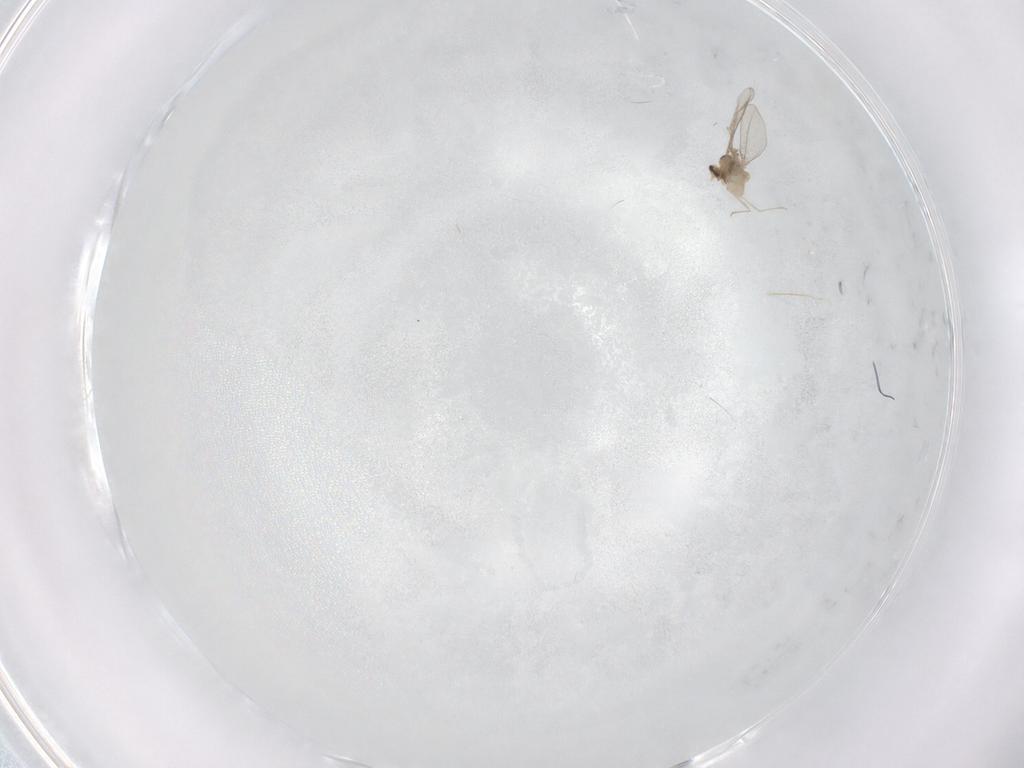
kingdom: Animalia
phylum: Arthropoda
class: Insecta
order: Diptera
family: Cecidomyiidae
